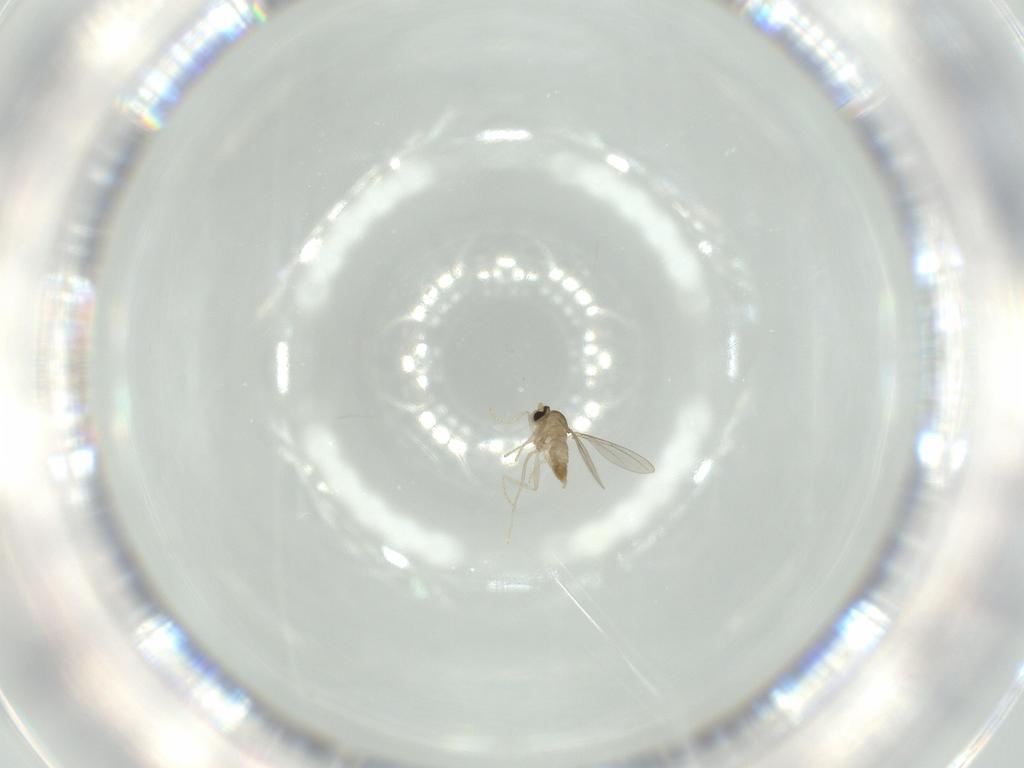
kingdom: Animalia
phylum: Arthropoda
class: Insecta
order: Diptera
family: Cecidomyiidae
